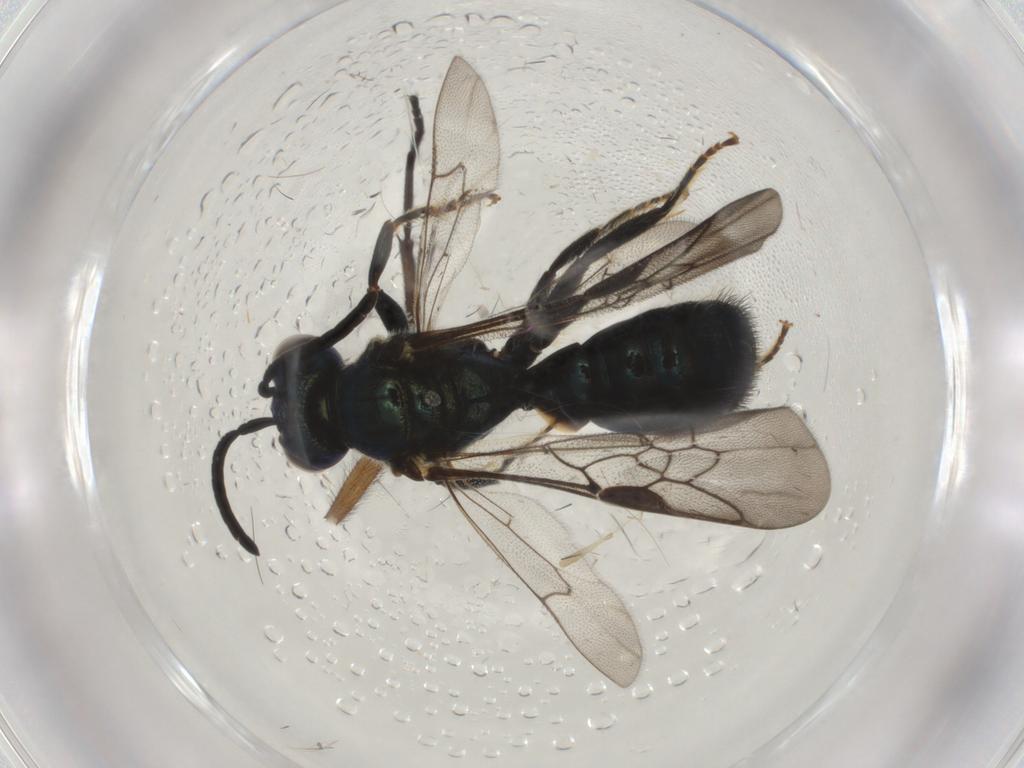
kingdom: Animalia
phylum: Arthropoda
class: Insecta
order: Hymenoptera
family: Apidae
